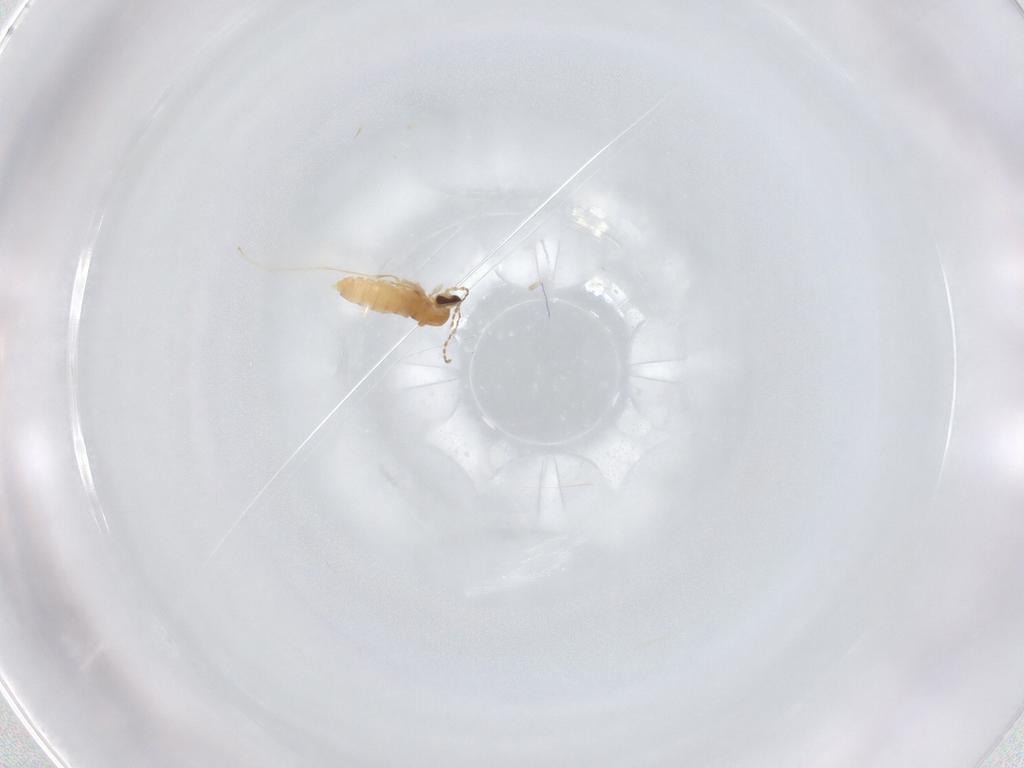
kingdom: Animalia
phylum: Arthropoda
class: Insecta
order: Diptera
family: Cecidomyiidae
